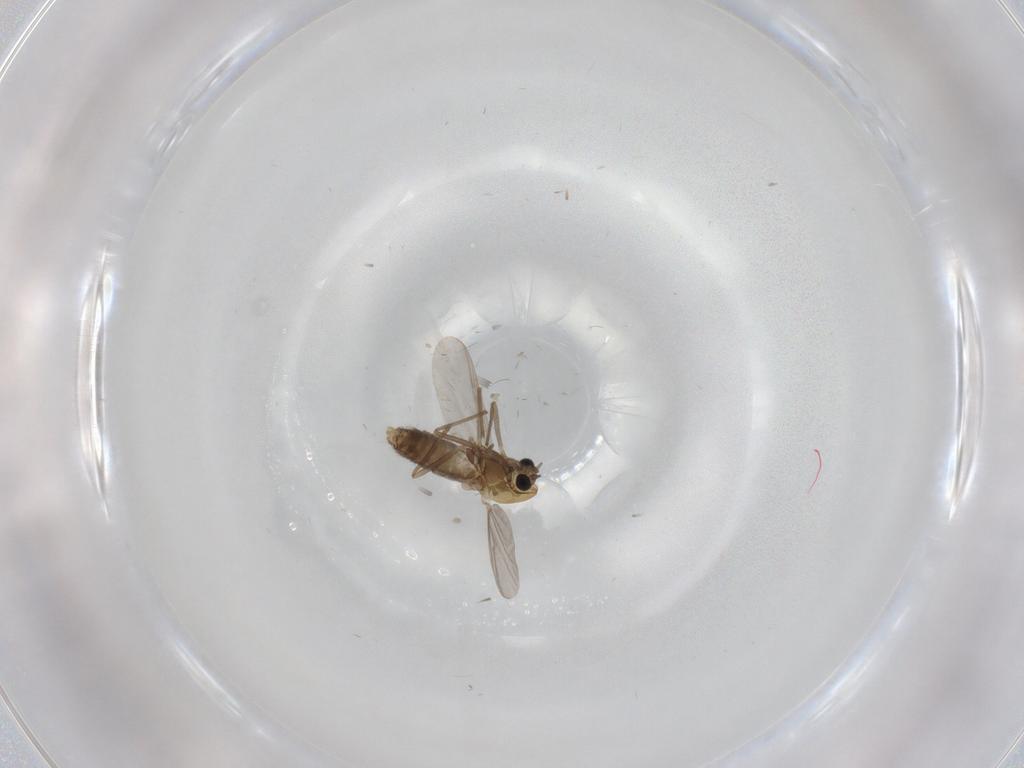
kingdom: Animalia
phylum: Arthropoda
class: Insecta
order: Diptera
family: Chironomidae
